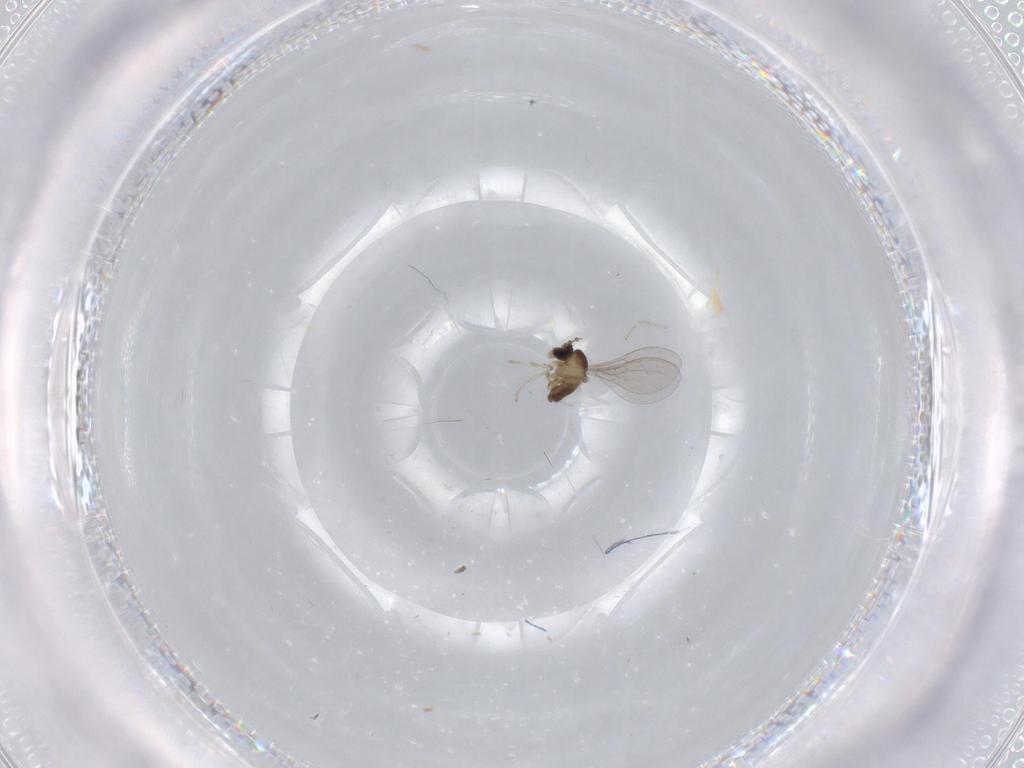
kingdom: Animalia
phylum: Arthropoda
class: Insecta
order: Diptera
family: Cecidomyiidae
